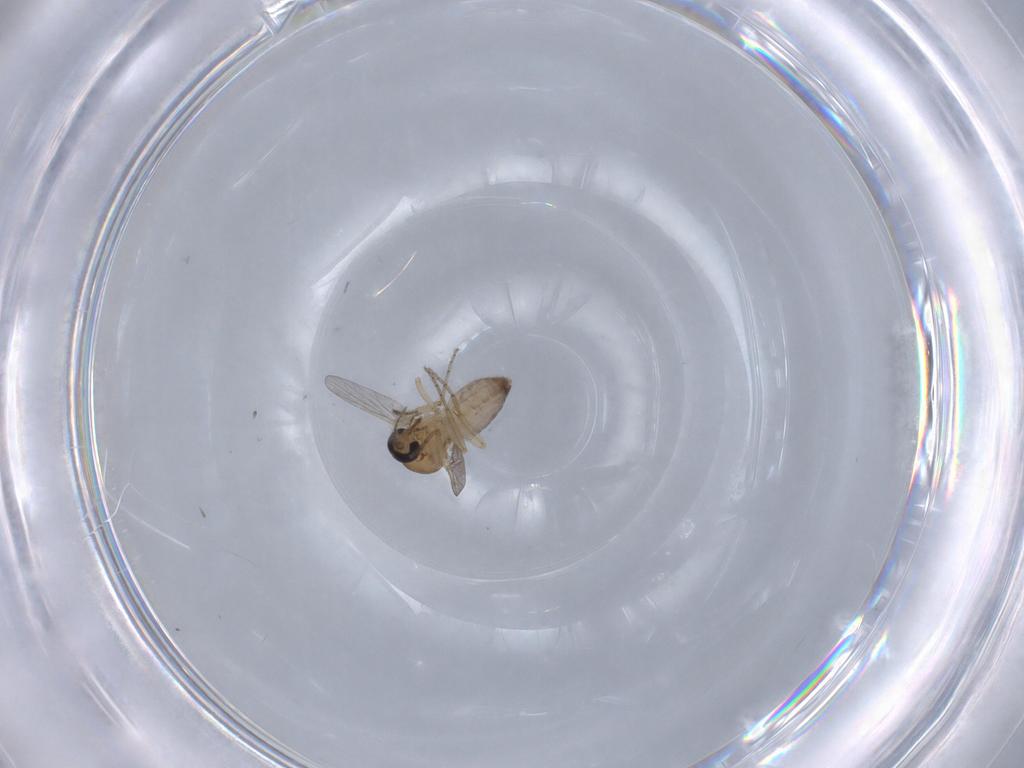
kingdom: Animalia
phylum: Arthropoda
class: Insecta
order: Diptera
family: Ceratopogonidae
